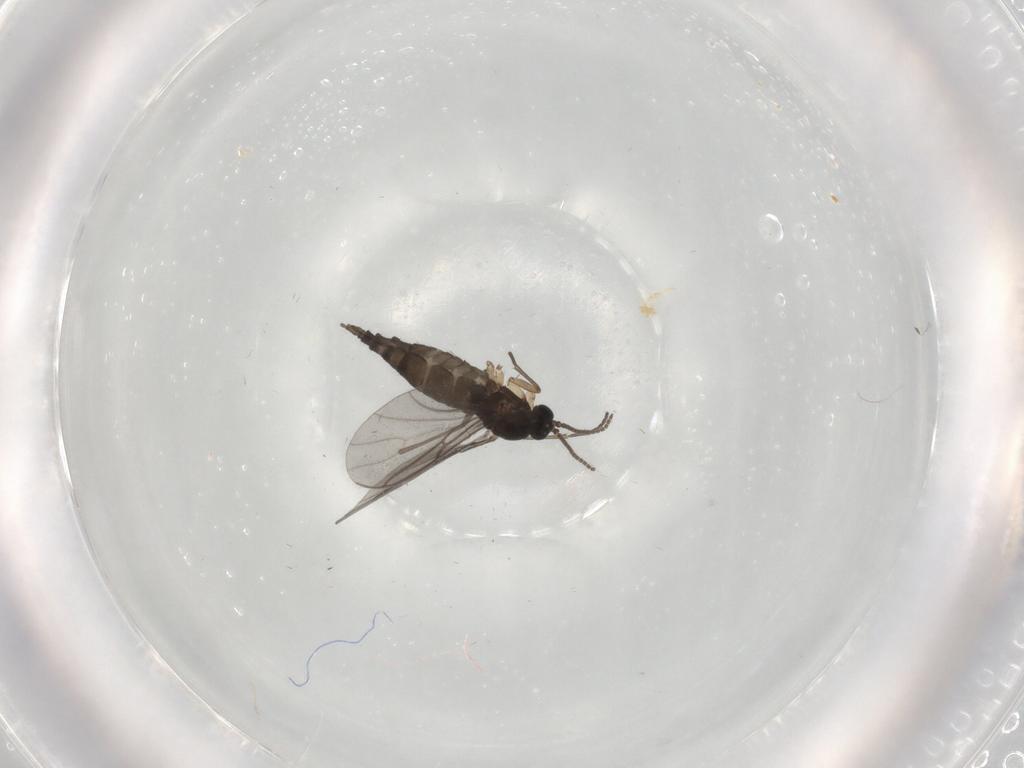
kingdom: Animalia
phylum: Arthropoda
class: Insecta
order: Diptera
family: Sciaridae
